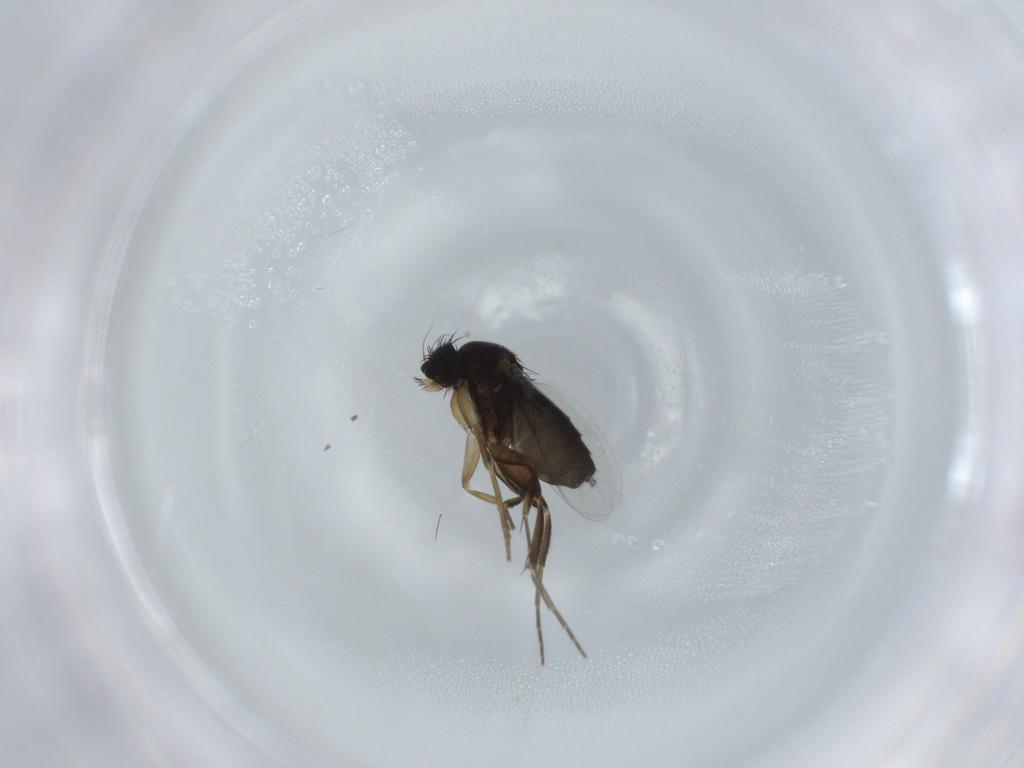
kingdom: Animalia
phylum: Arthropoda
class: Insecta
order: Diptera
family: Phoridae
